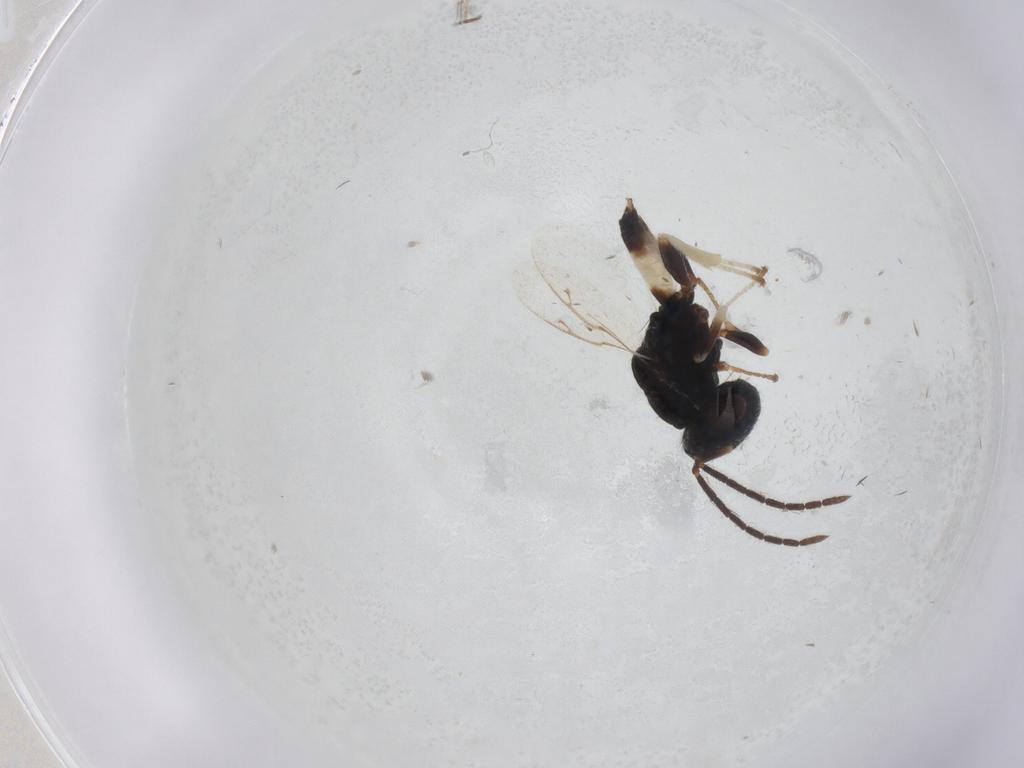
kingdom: Animalia
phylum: Arthropoda
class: Insecta
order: Hymenoptera
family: Pteromalidae
